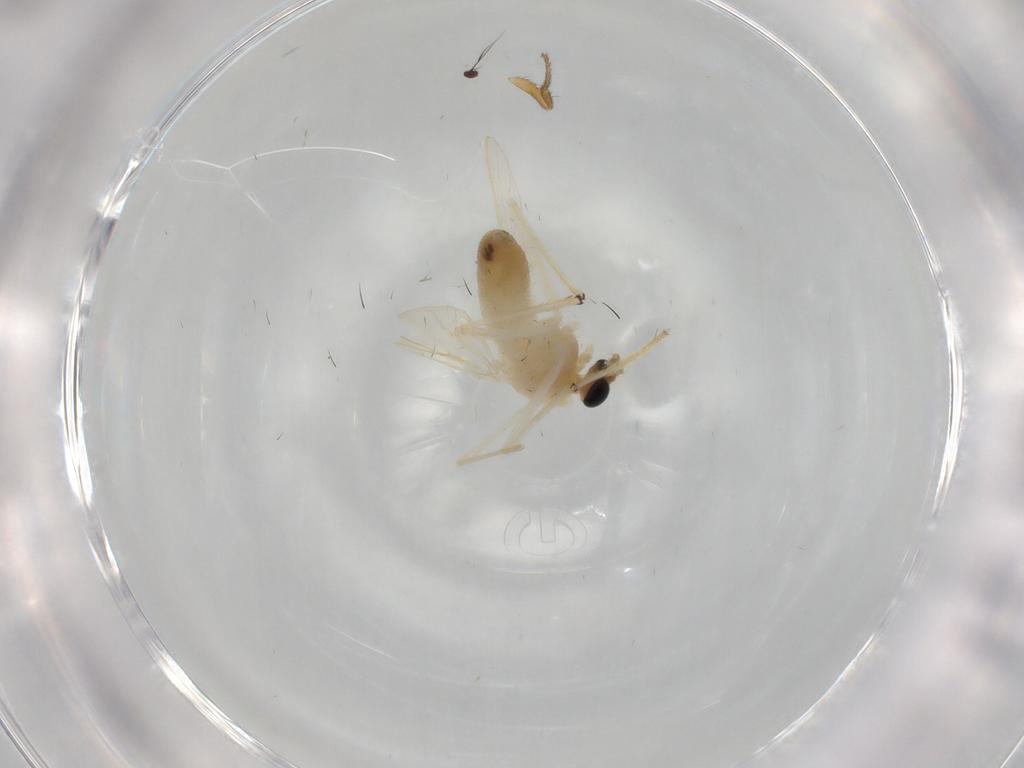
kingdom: Animalia
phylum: Arthropoda
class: Insecta
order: Diptera
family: Chironomidae
